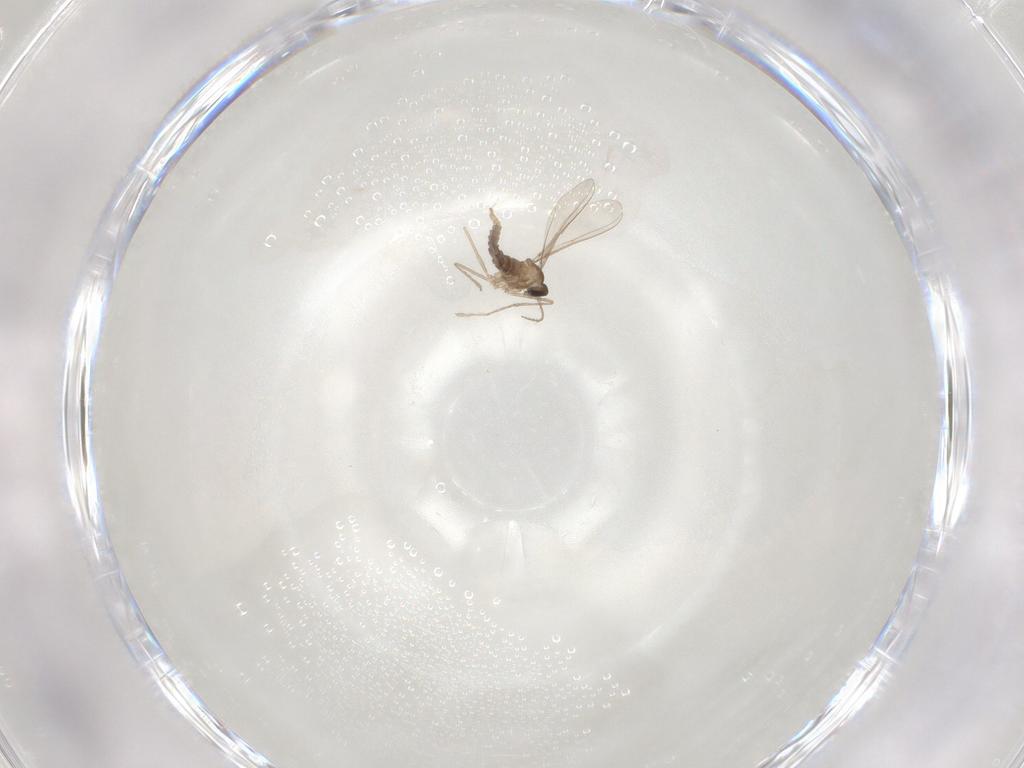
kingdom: Animalia
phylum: Arthropoda
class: Insecta
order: Diptera
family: Cecidomyiidae
